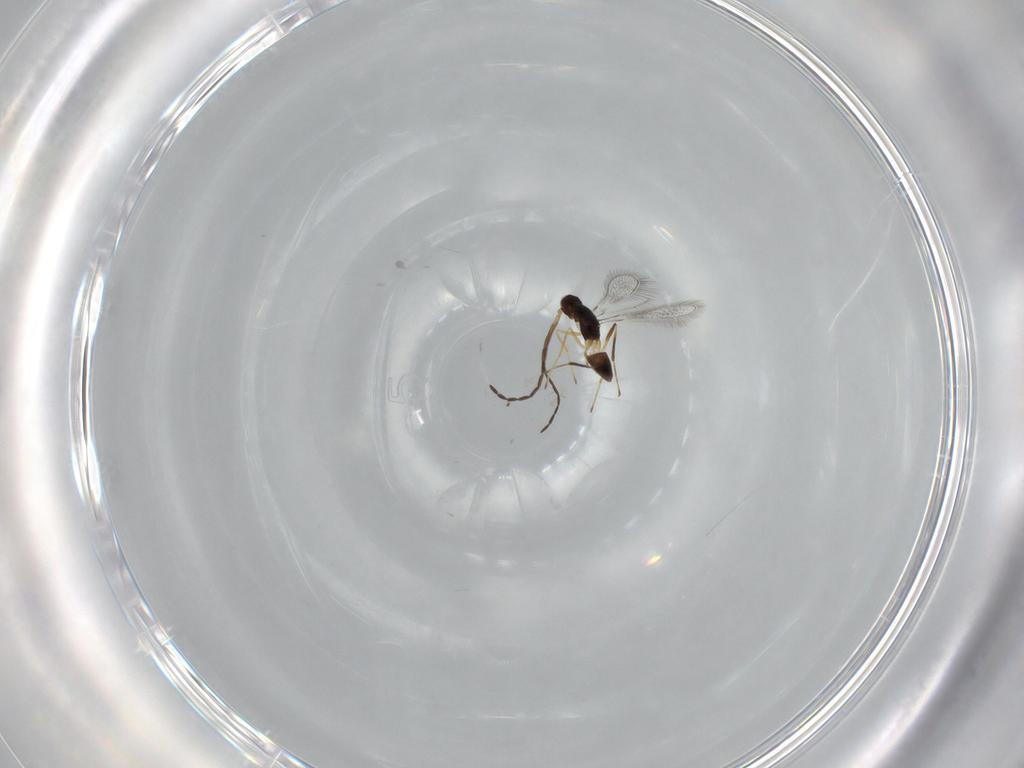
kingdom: Animalia
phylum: Arthropoda
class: Insecta
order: Hymenoptera
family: Mymaridae
